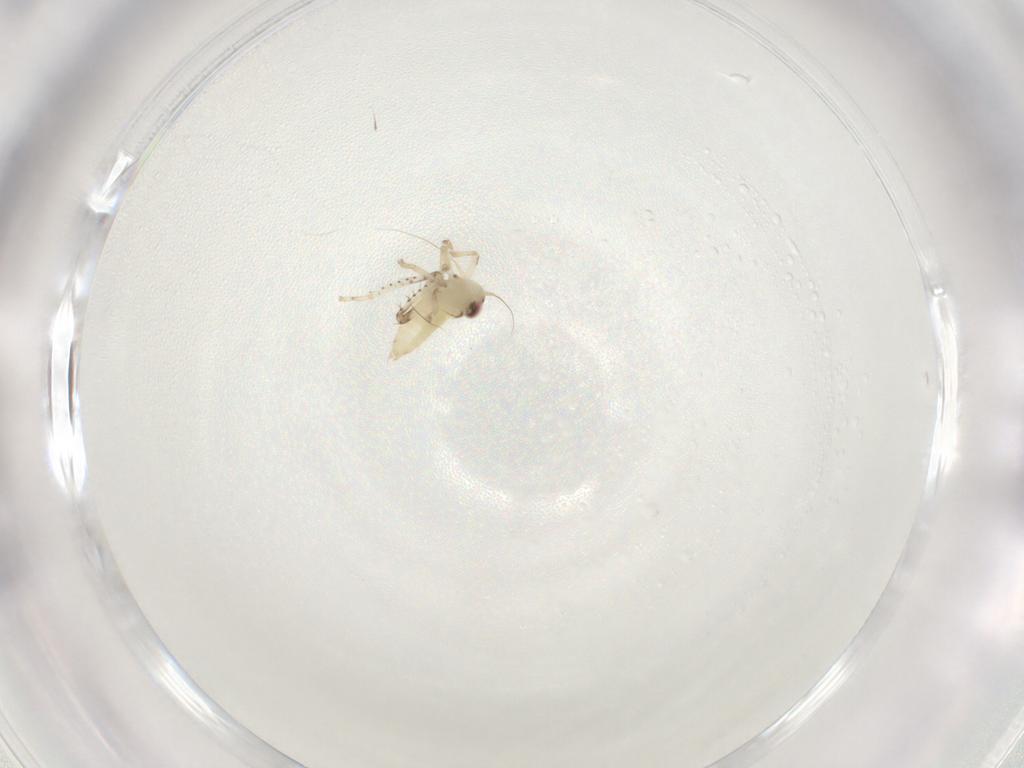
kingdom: Animalia
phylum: Arthropoda
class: Insecta
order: Hemiptera
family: Cicadellidae
